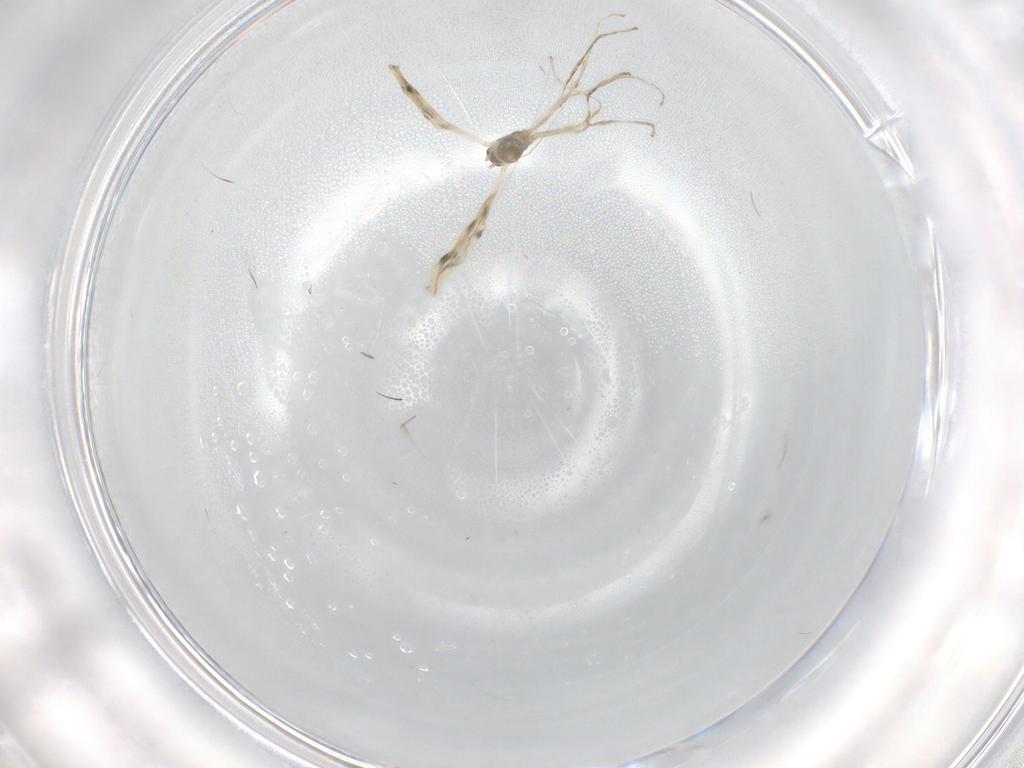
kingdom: Animalia
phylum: Arthropoda
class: Insecta
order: Diptera
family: Cecidomyiidae
